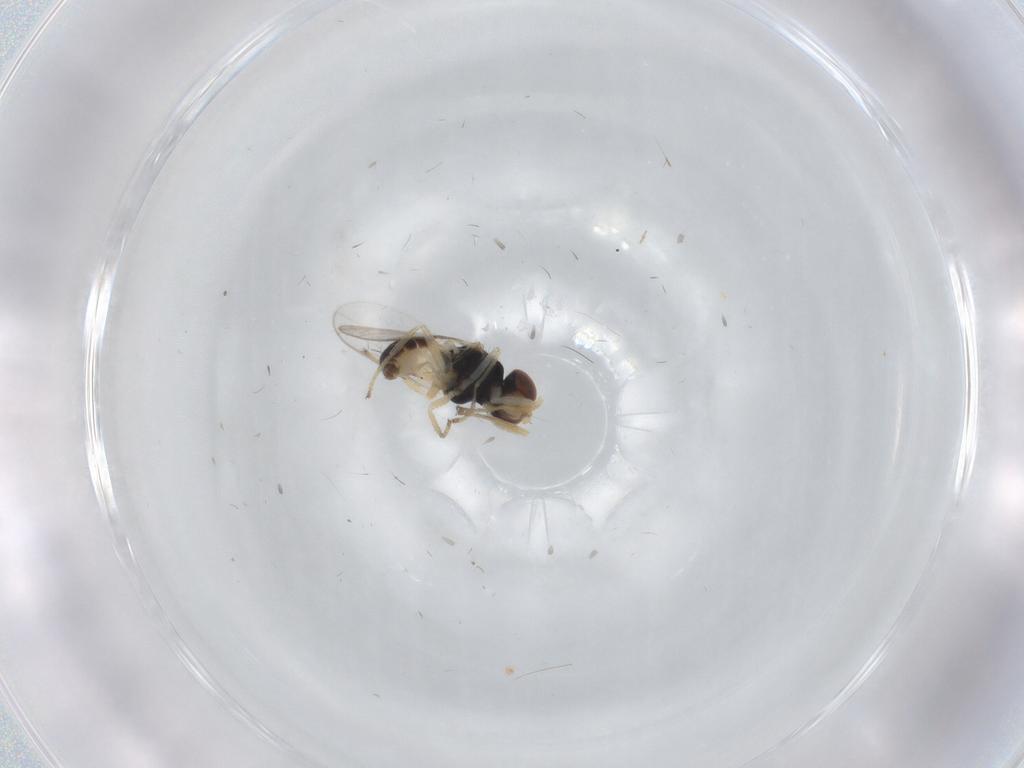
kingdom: Animalia
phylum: Arthropoda
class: Insecta
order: Diptera
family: Chloropidae
